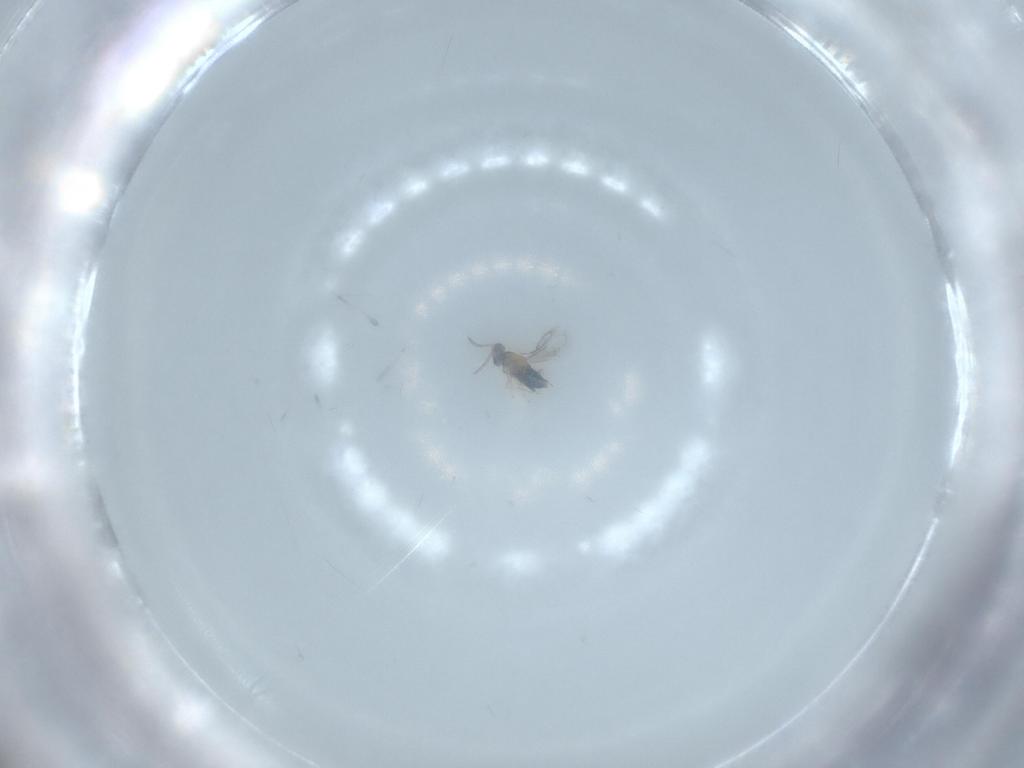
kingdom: Animalia
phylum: Arthropoda
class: Insecta
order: Hymenoptera
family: Aphelinidae
